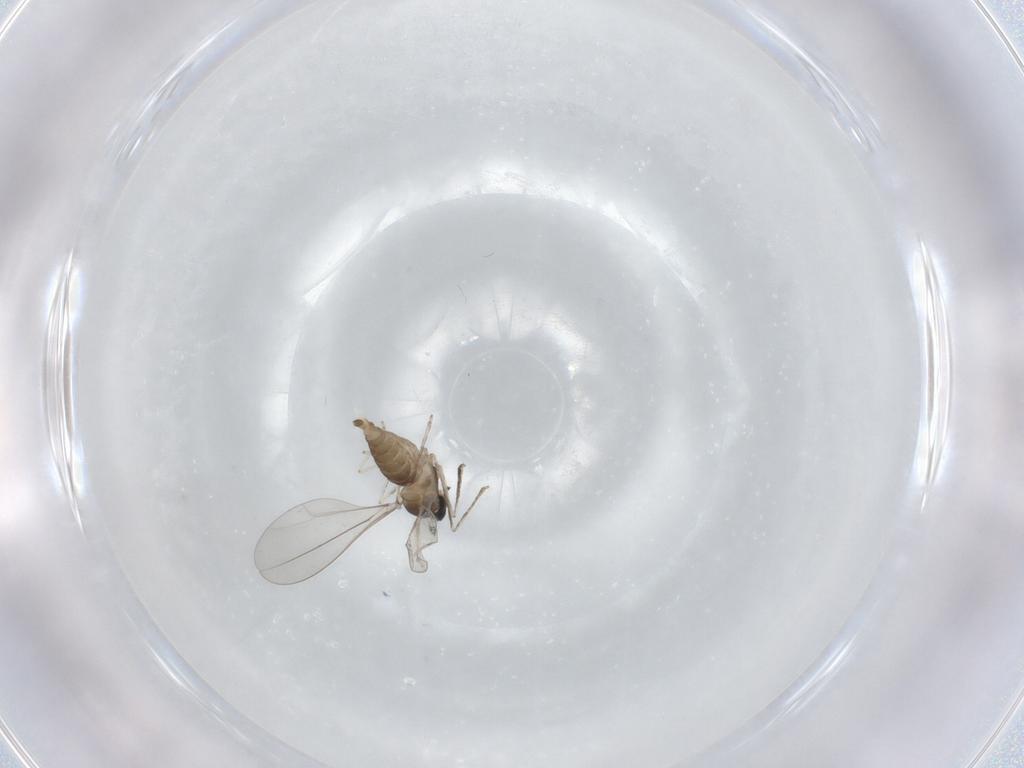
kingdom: Animalia
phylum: Arthropoda
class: Insecta
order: Diptera
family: Cecidomyiidae
